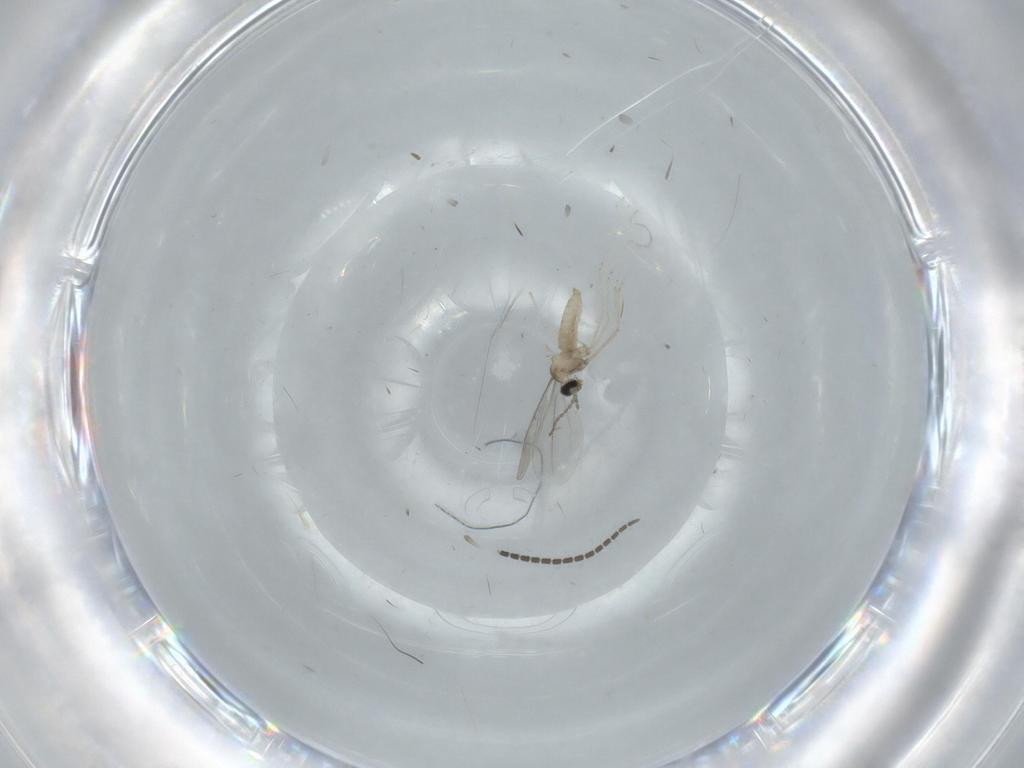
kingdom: Animalia
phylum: Arthropoda
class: Insecta
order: Diptera
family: Cecidomyiidae
